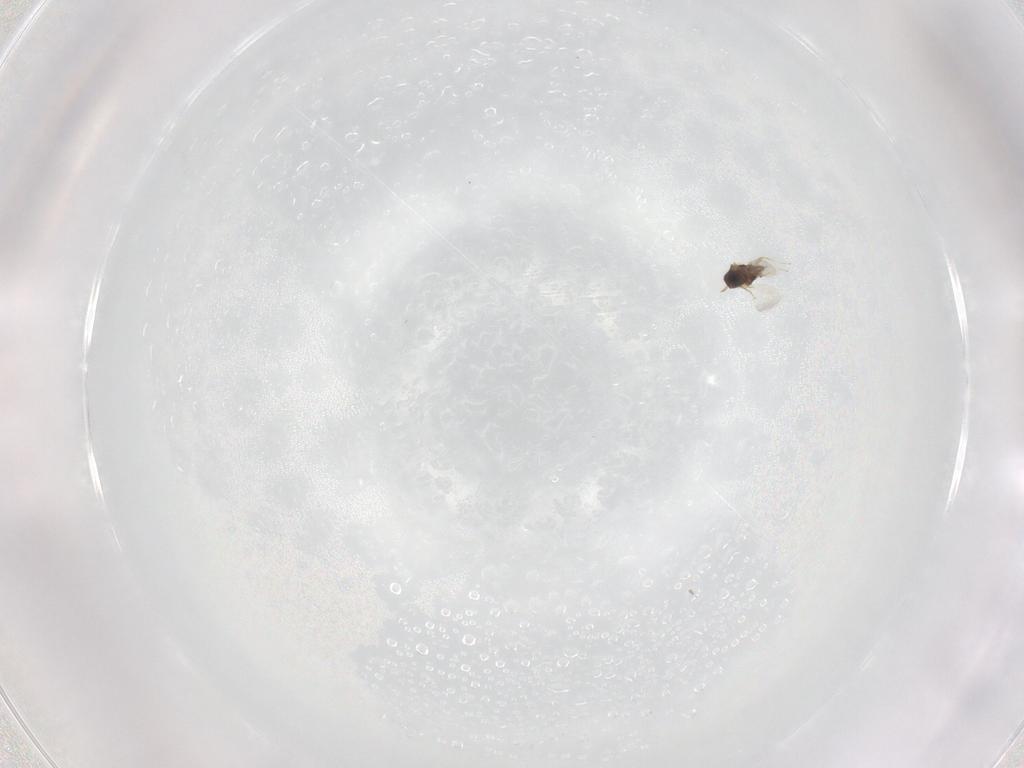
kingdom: Animalia
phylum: Arthropoda
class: Insecta
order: Hymenoptera
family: Encyrtidae
